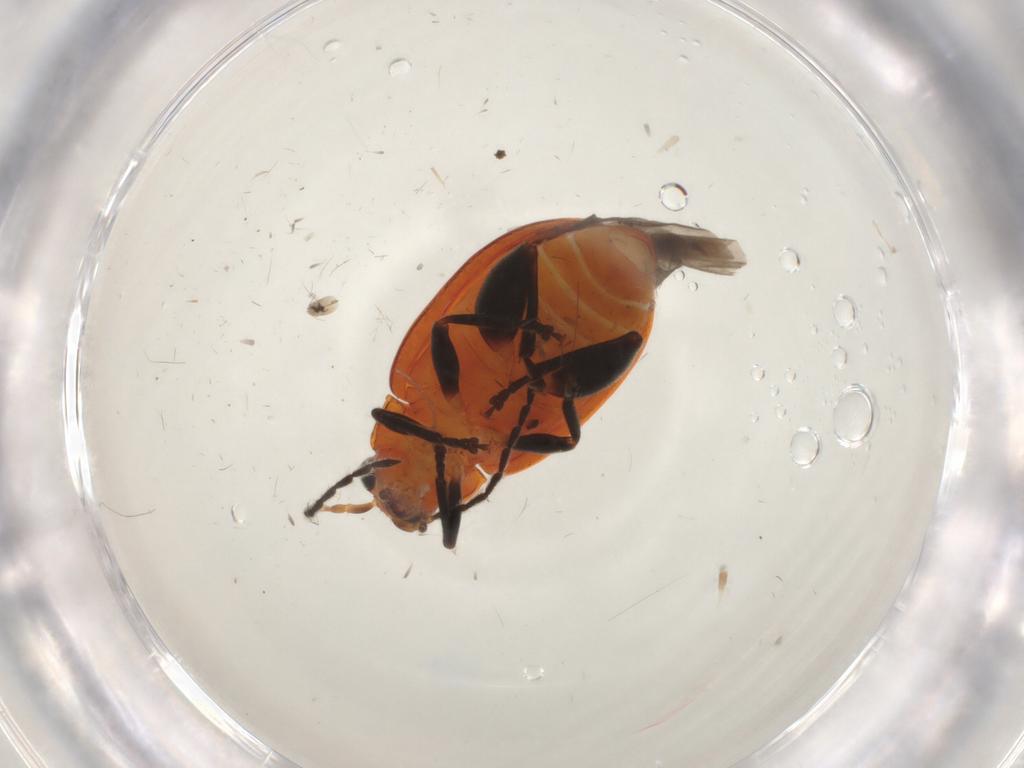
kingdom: Animalia
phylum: Arthropoda
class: Insecta
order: Coleoptera
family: Chrysomelidae
